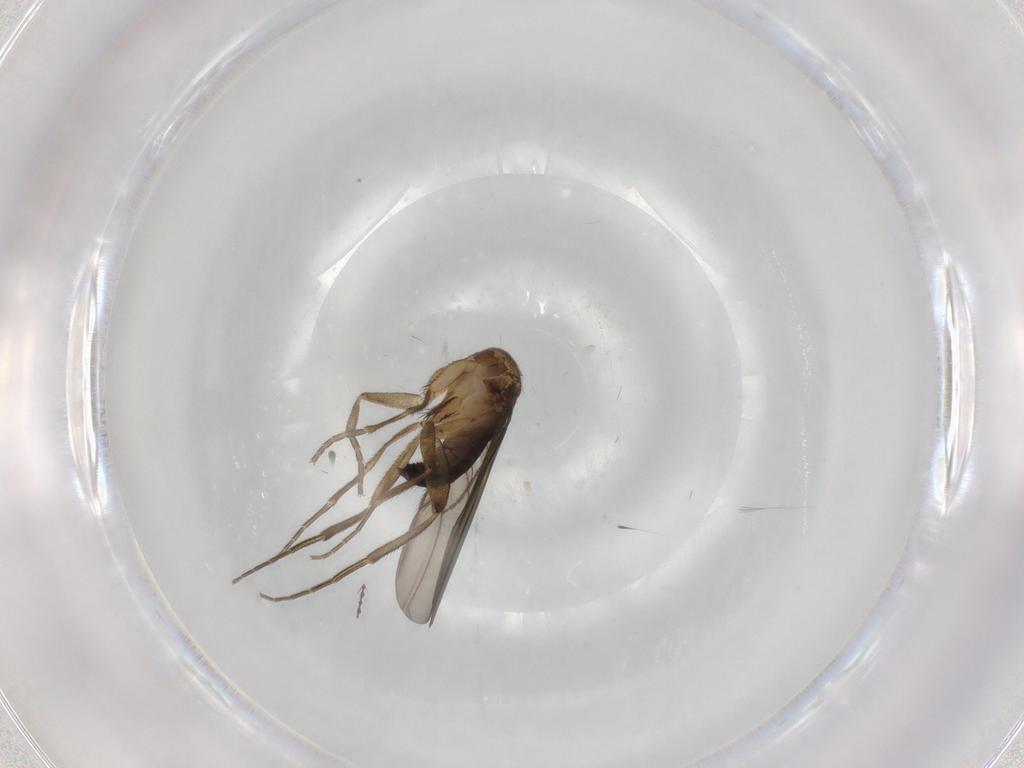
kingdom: Animalia
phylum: Arthropoda
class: Insecta
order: Diptera
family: Phoridae
